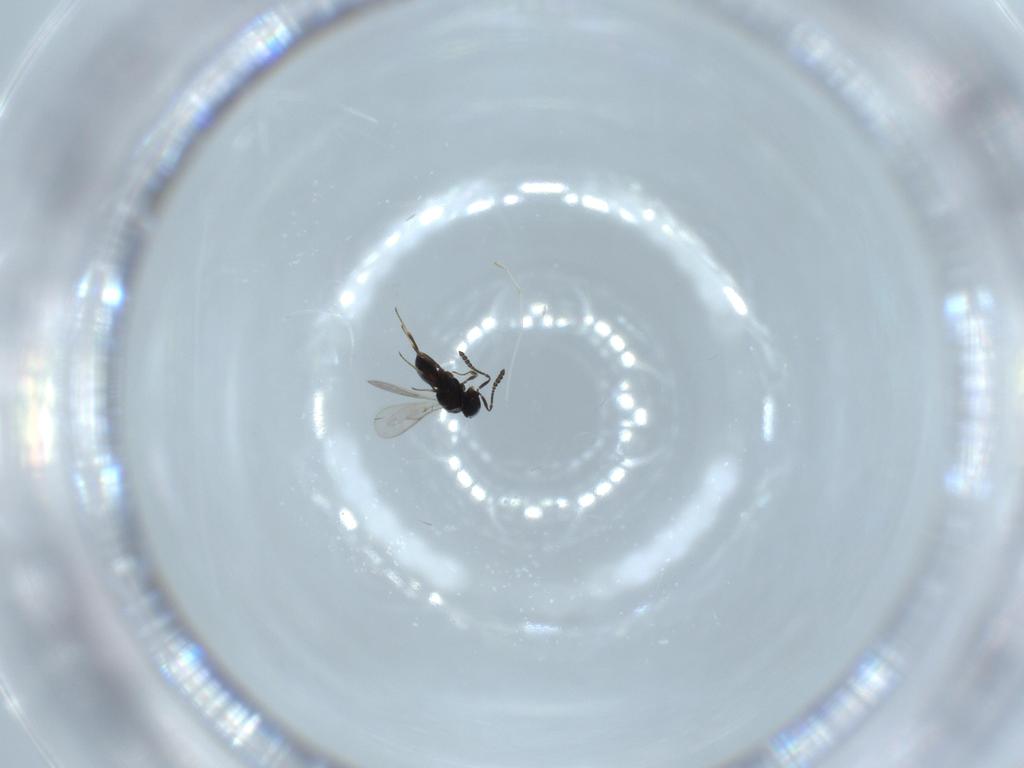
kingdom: Animalia
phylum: Arthropoda
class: Insecta
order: Hymenoptera
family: Scelionidae
